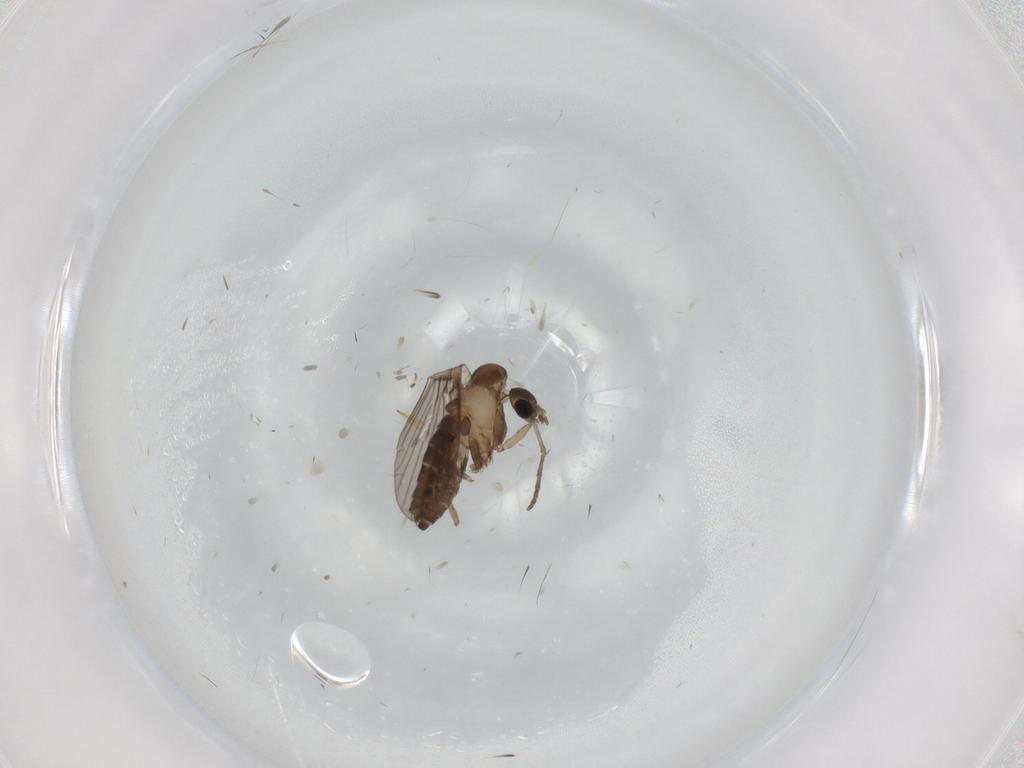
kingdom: Animalia
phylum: Arthropoda
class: Insecta
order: Diptera
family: Psychodidae
